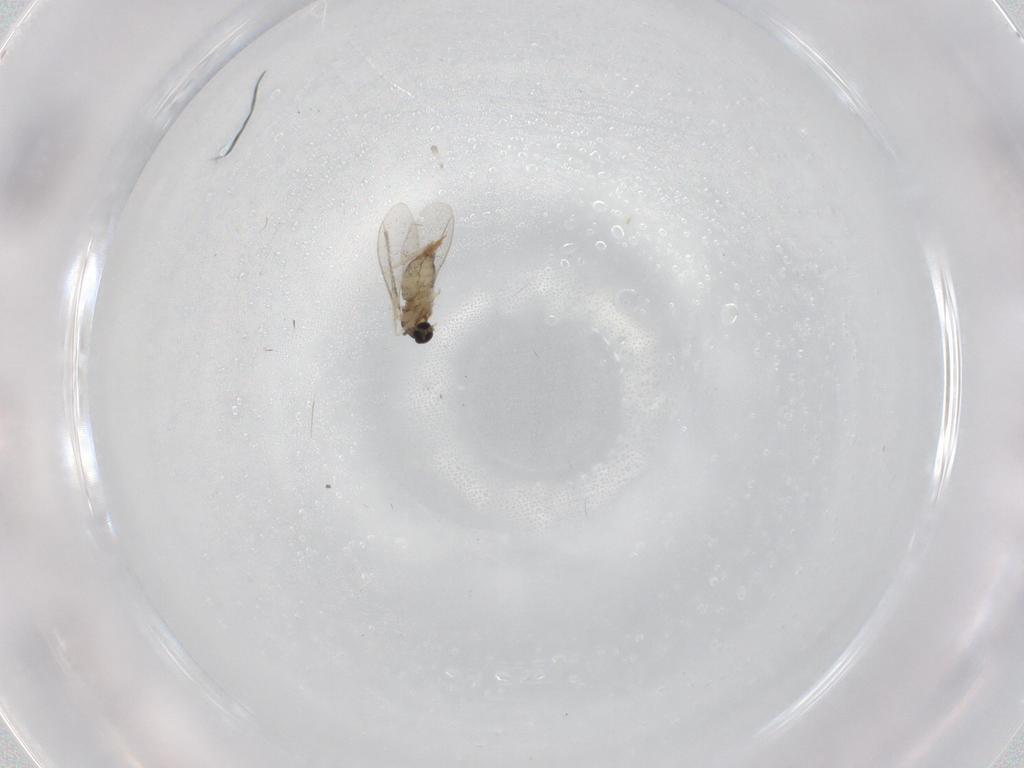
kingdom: Animalia
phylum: Arthropoda
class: Insecta
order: Diptera
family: Cecidomyiidae
